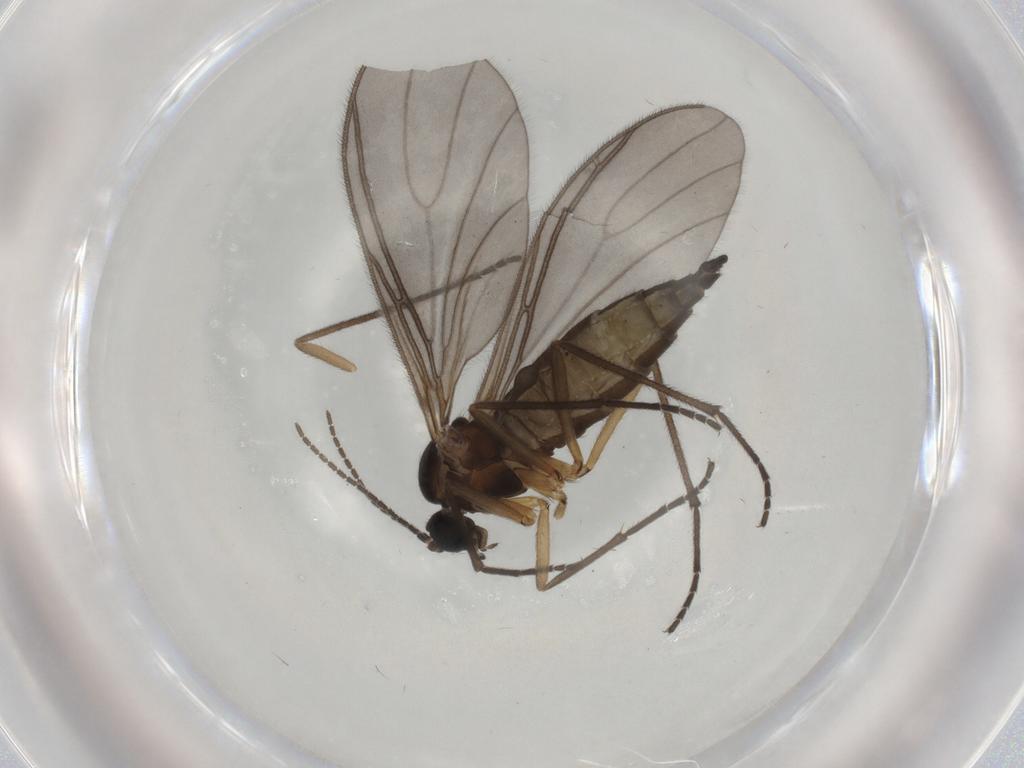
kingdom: Animalia
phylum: Arthropoda
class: Insecta
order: Diptera
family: Sciaridae
